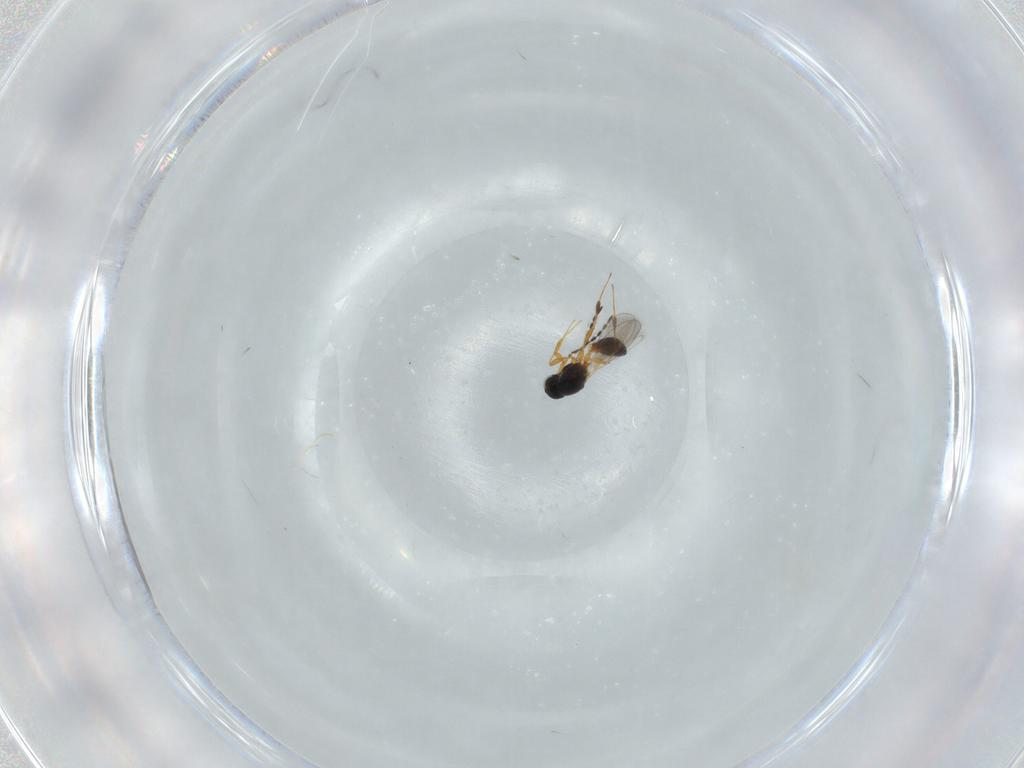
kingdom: Animalia
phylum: Arthropoda
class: Insecta
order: Hymenoptera
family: Platygastridae
